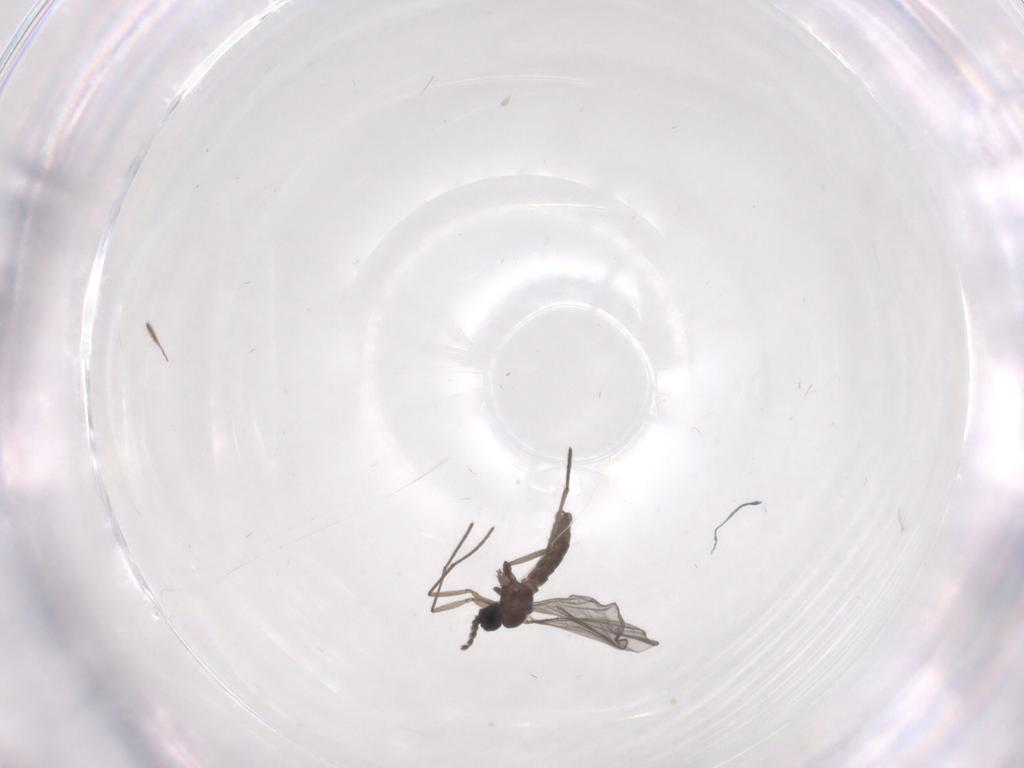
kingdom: Animalia
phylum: Arthropoda
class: Insecta
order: Diptera
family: Sciaridae
